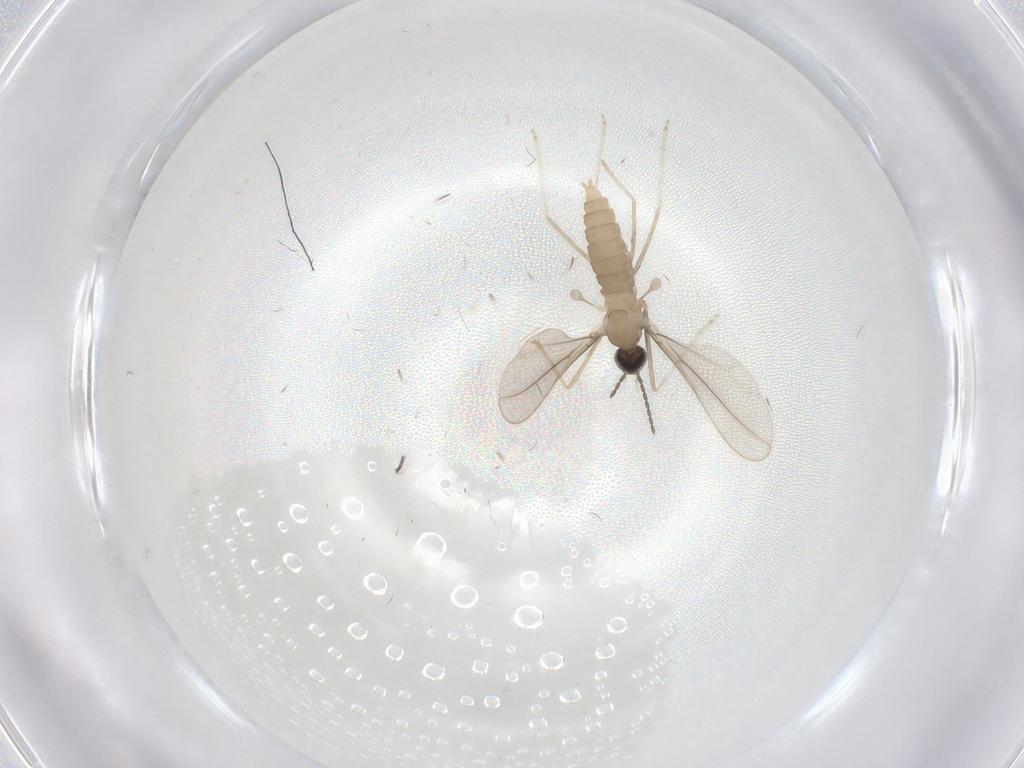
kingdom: Animalia
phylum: Arthropoda
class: Insecta
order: Diptera
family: Cecidomyiidae
